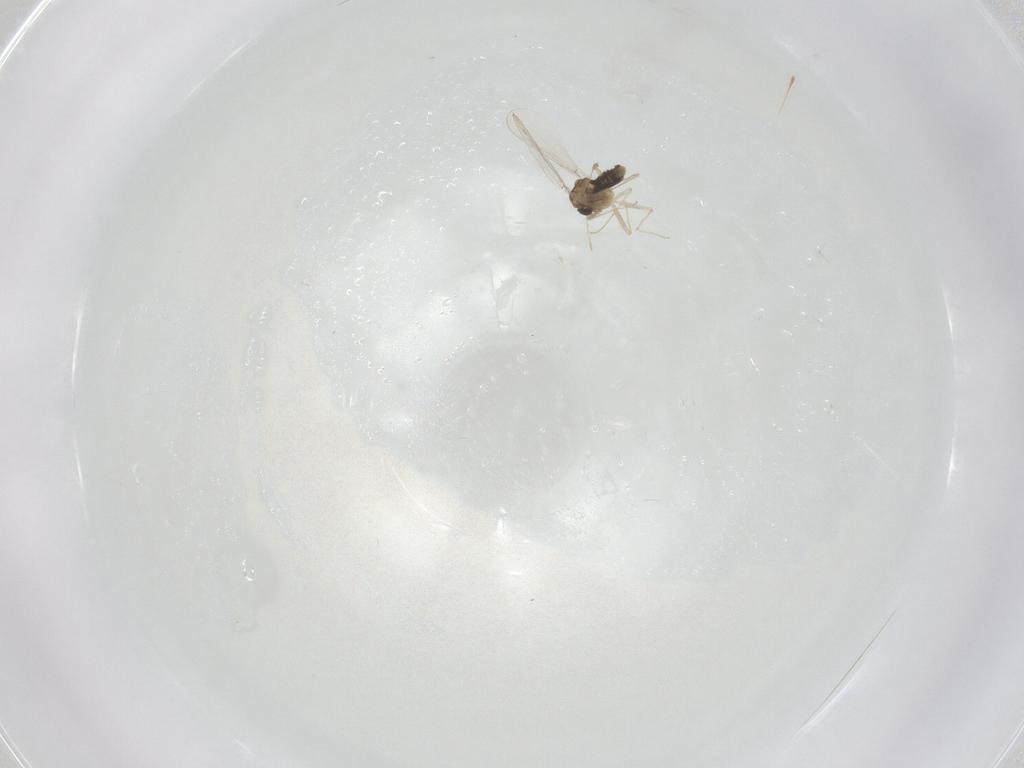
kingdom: Animalia
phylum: Arthropoda
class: Insecta
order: Diptera
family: Chironomidae
